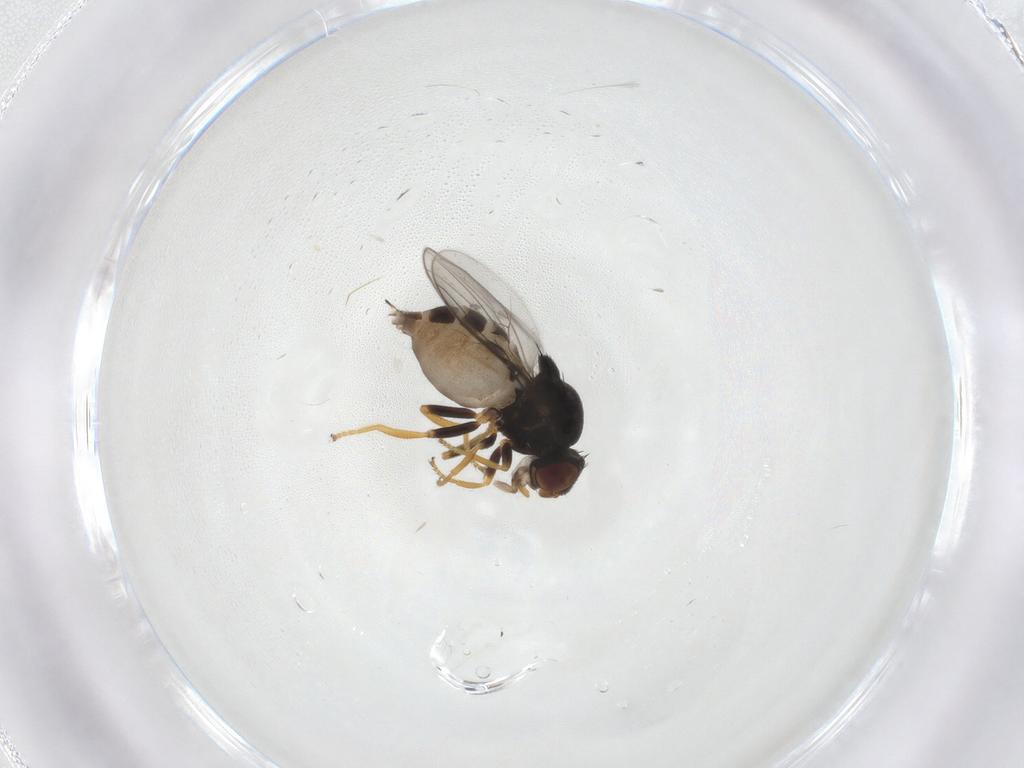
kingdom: Animalia
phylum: Arthropoda
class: Insecta
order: Diptera
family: Chloropidae
